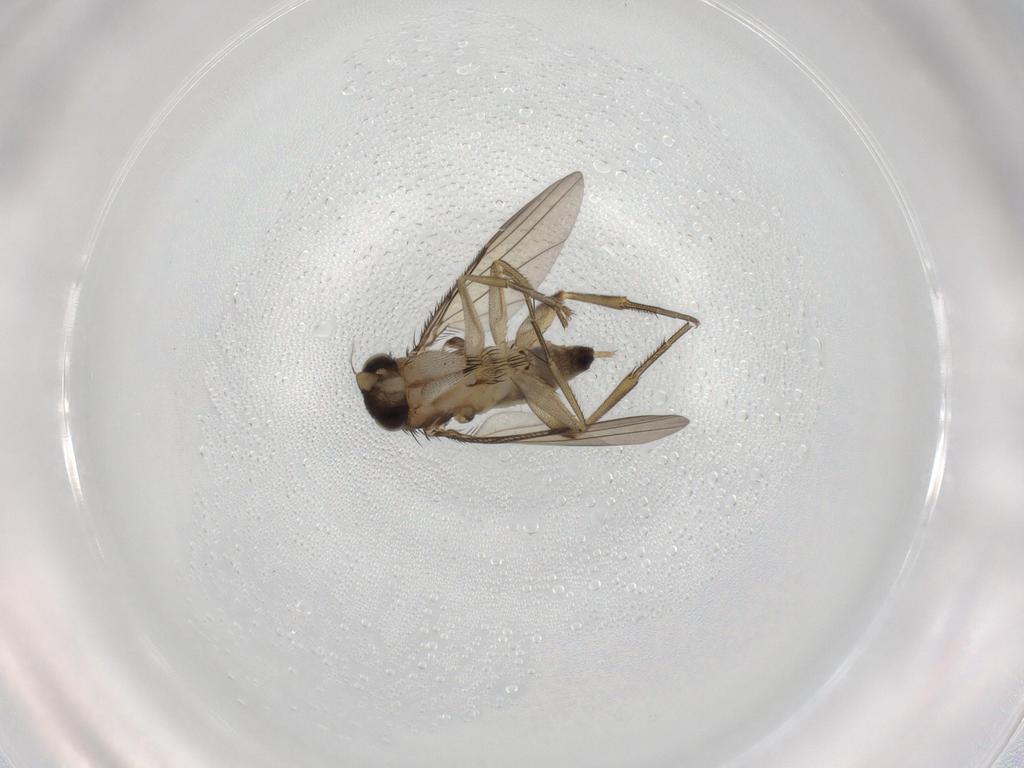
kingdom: Animalia
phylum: Arthropoda
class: Insecta
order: Diptera
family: Phoridae
